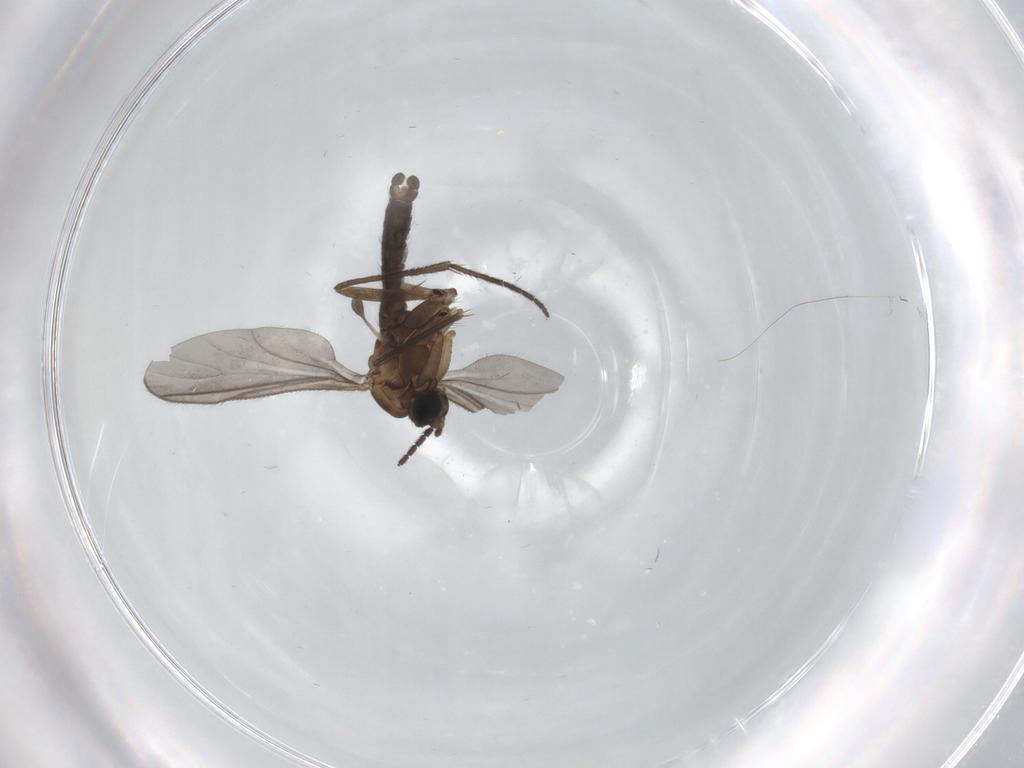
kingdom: Animalia
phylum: Arthropoda
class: Insecta
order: Diptera
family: Sciaridae
